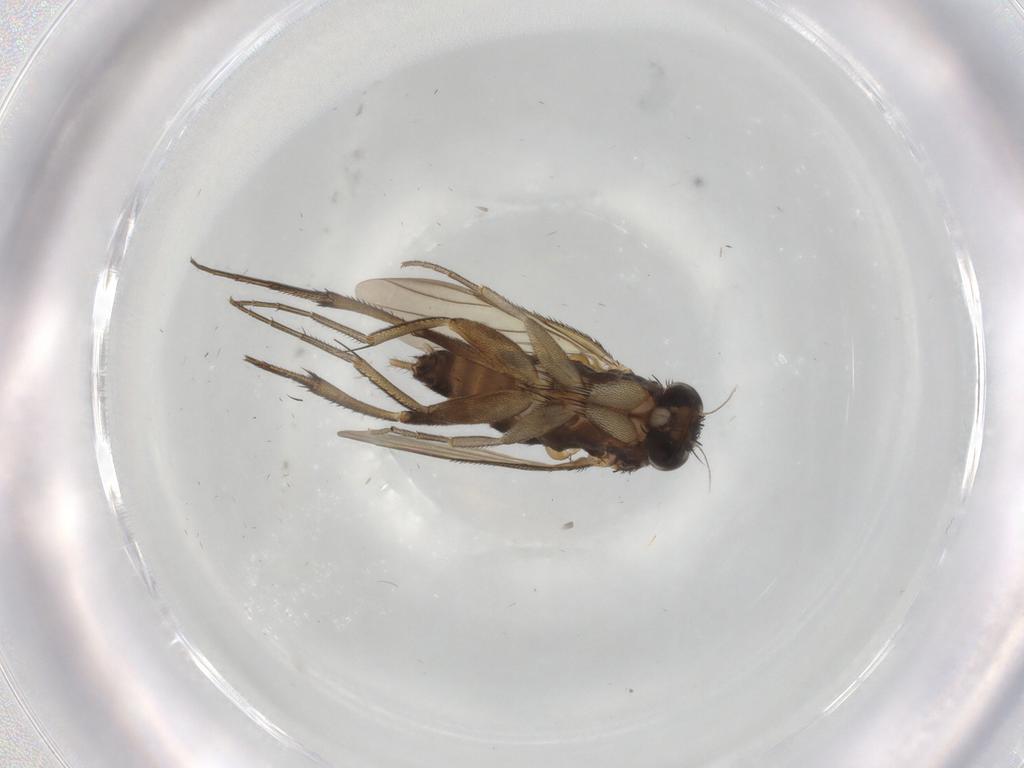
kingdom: Animalia
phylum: Arthropoda
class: Insecta
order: Diptera
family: Phoridae
